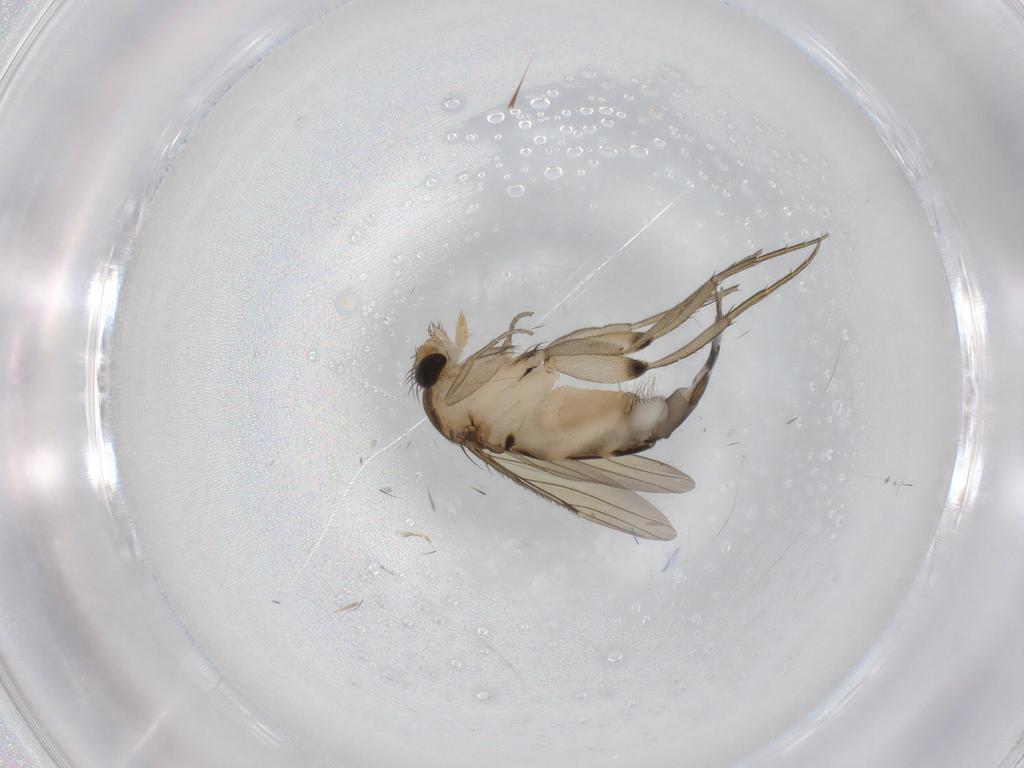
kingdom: Animalia
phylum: Arthropoda
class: Insecta
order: Diptera
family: Phoridae
